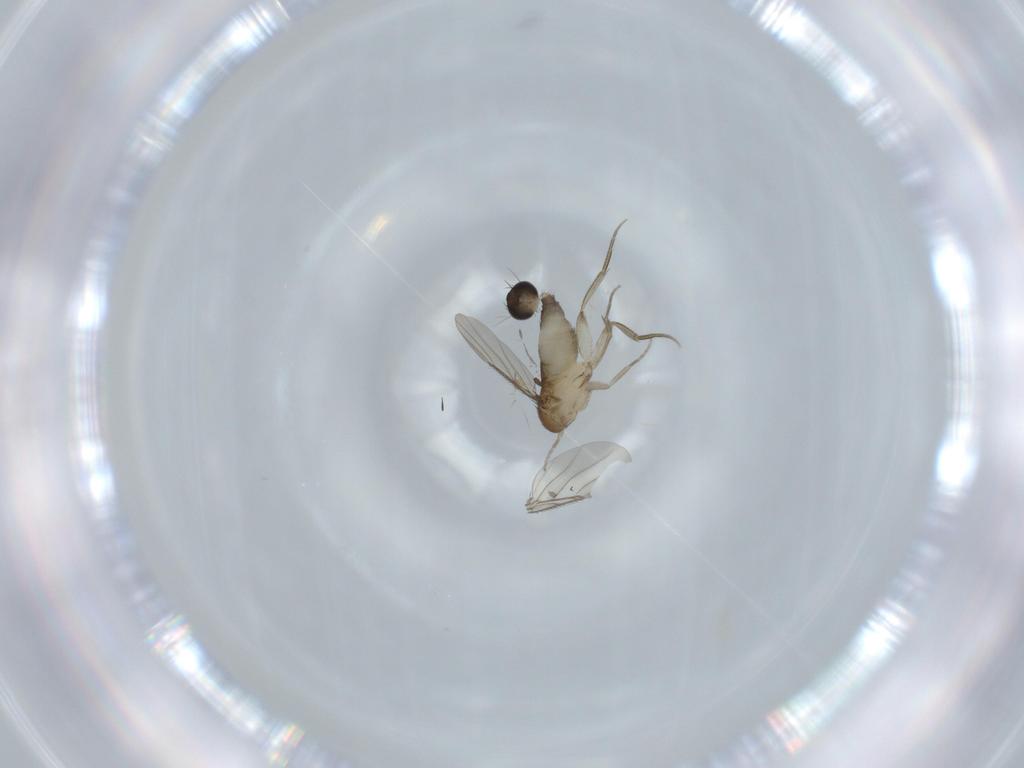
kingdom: Animalia
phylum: Arthropoda
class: Insecta
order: Diptera
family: Phoridae
